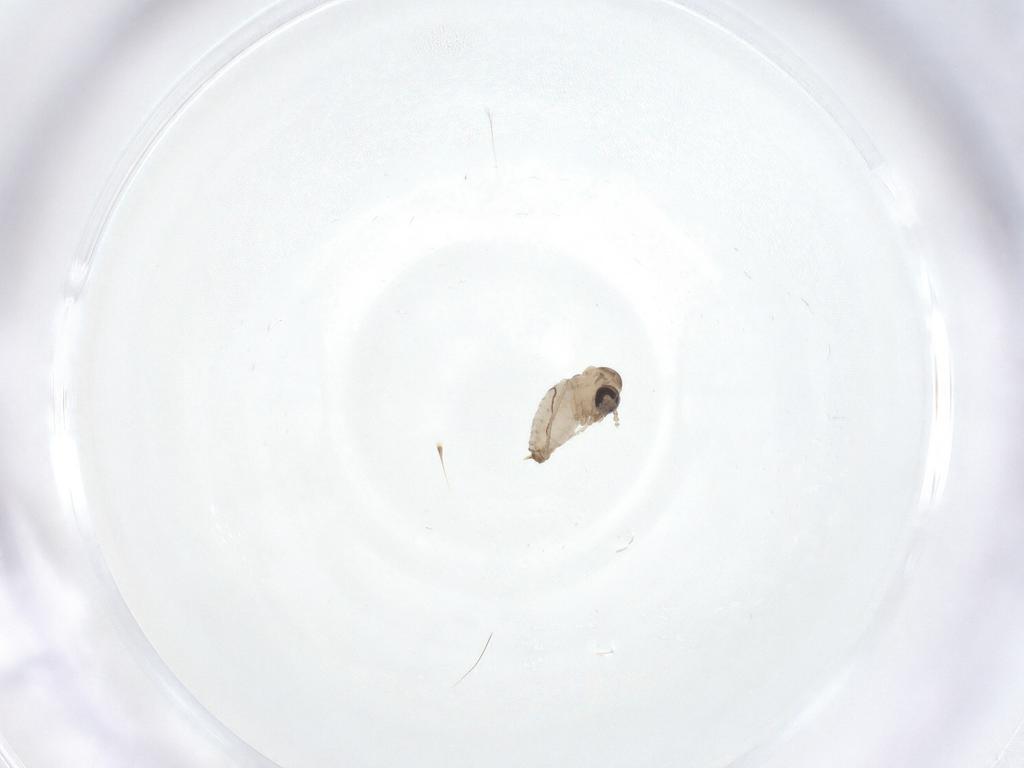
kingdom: Animalia
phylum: Arthropoda
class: Insecta
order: Diptera
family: Psychodidae
